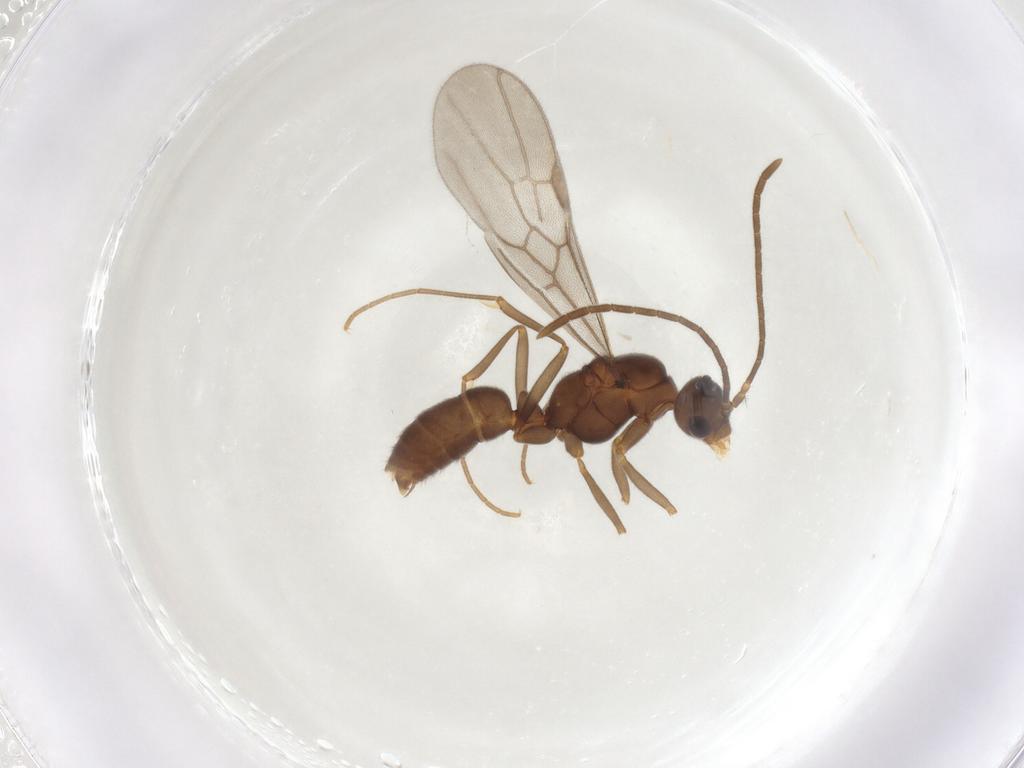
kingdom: Animalia
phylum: Arthropoda
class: Insecta
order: Hymenoptera
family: Formicidae
